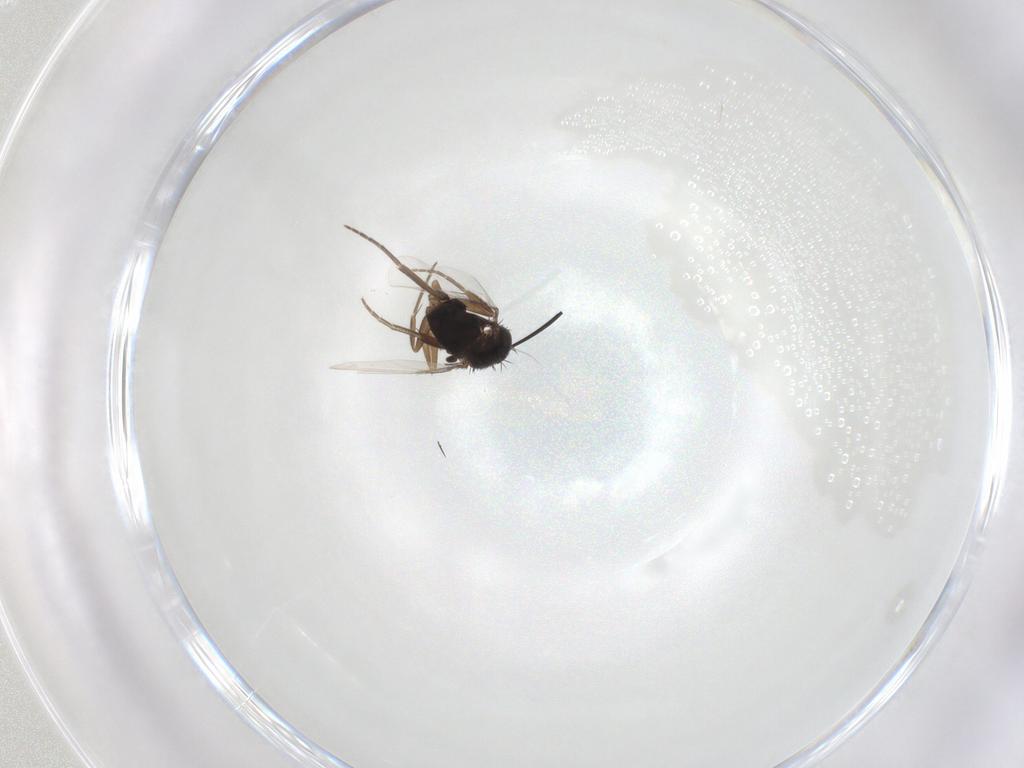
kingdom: Animalia
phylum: Arthropoda
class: Insecta
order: Diptera
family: Phoridae
